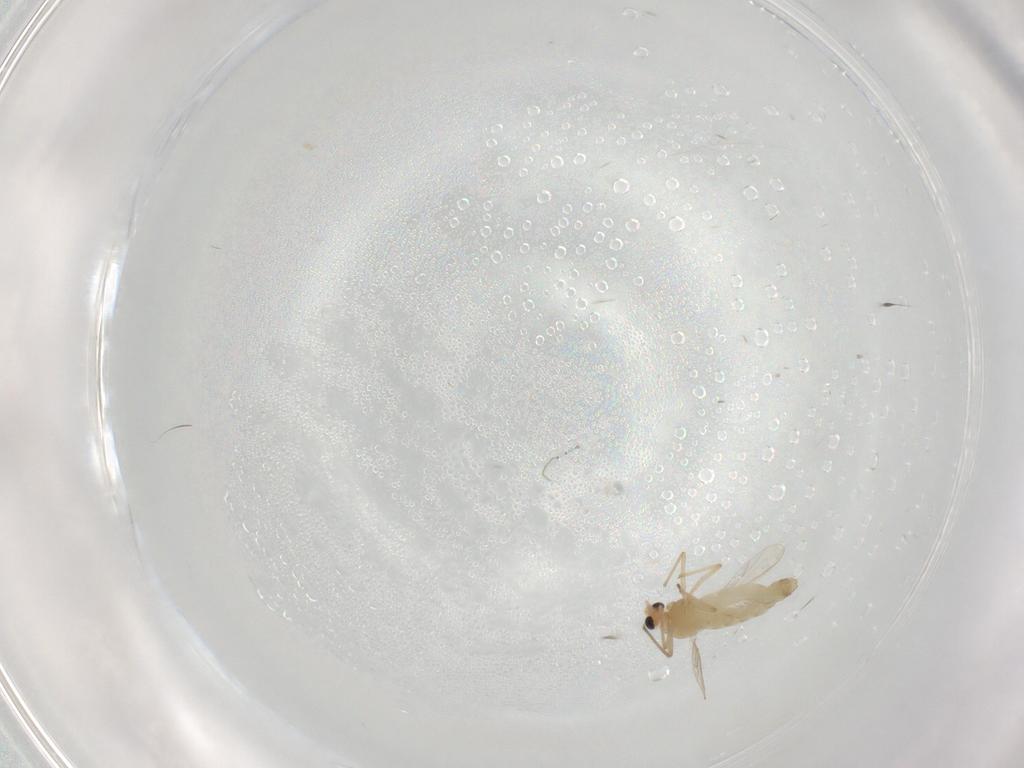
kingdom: Animalia
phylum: Arthropoda
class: Insecta
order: Diptera
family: Chironomidae
